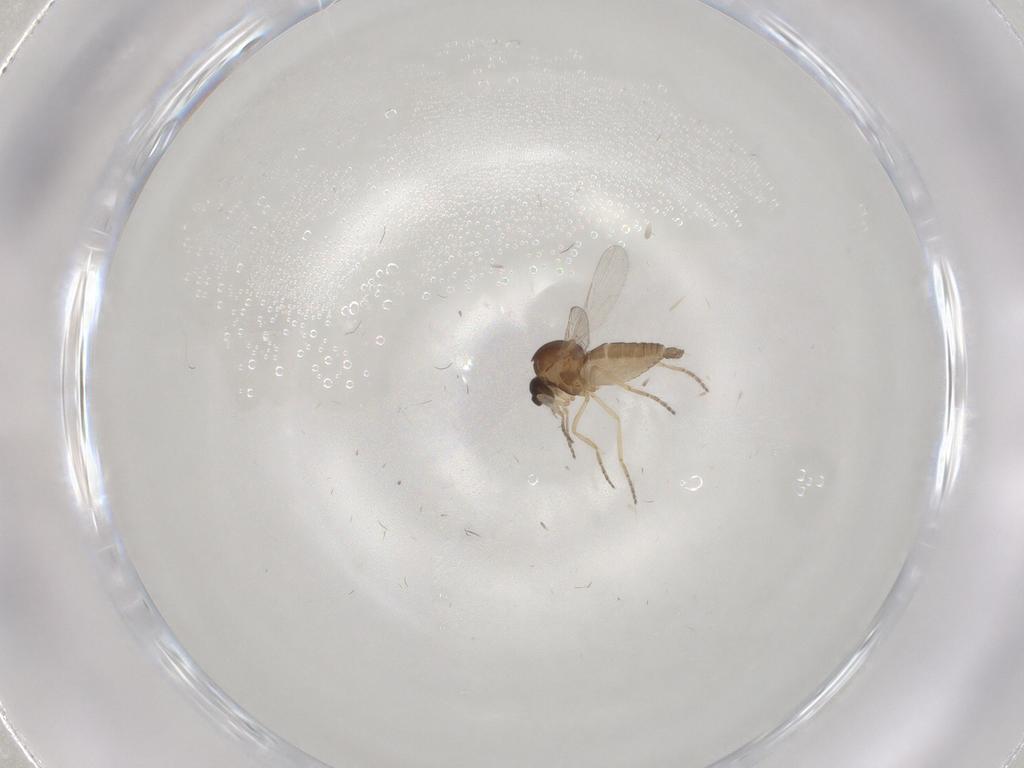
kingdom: Animalia
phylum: Arthropoda
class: Insecta
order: Diptera
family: Ceratopogonidae
